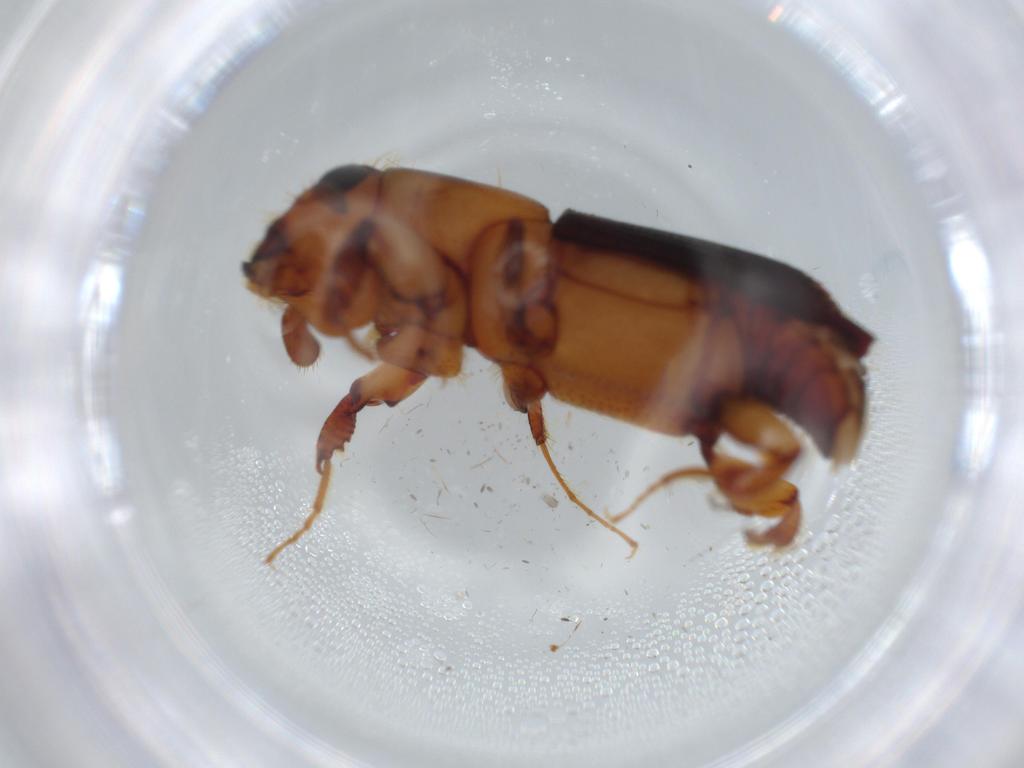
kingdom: Animalia
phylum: Arthropoda
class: Insecta
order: Coleoptera
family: Curculionidae
